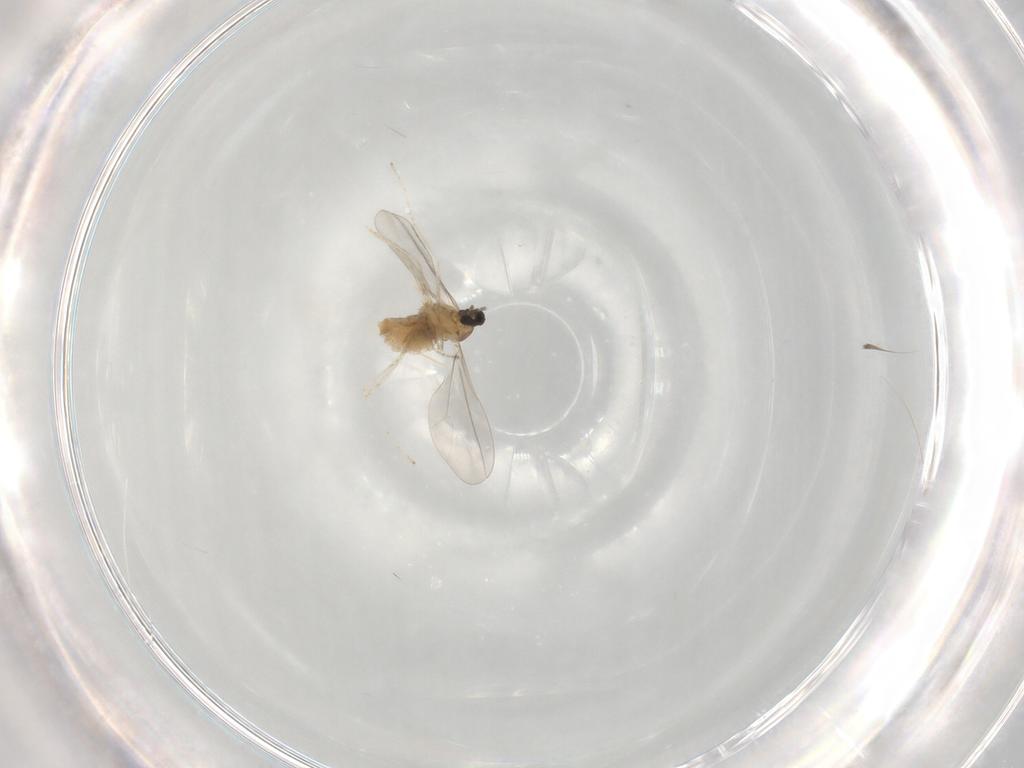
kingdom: Animalia
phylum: Arthropoda
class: Insecta
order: Diptera
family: Cecidomyiidae
